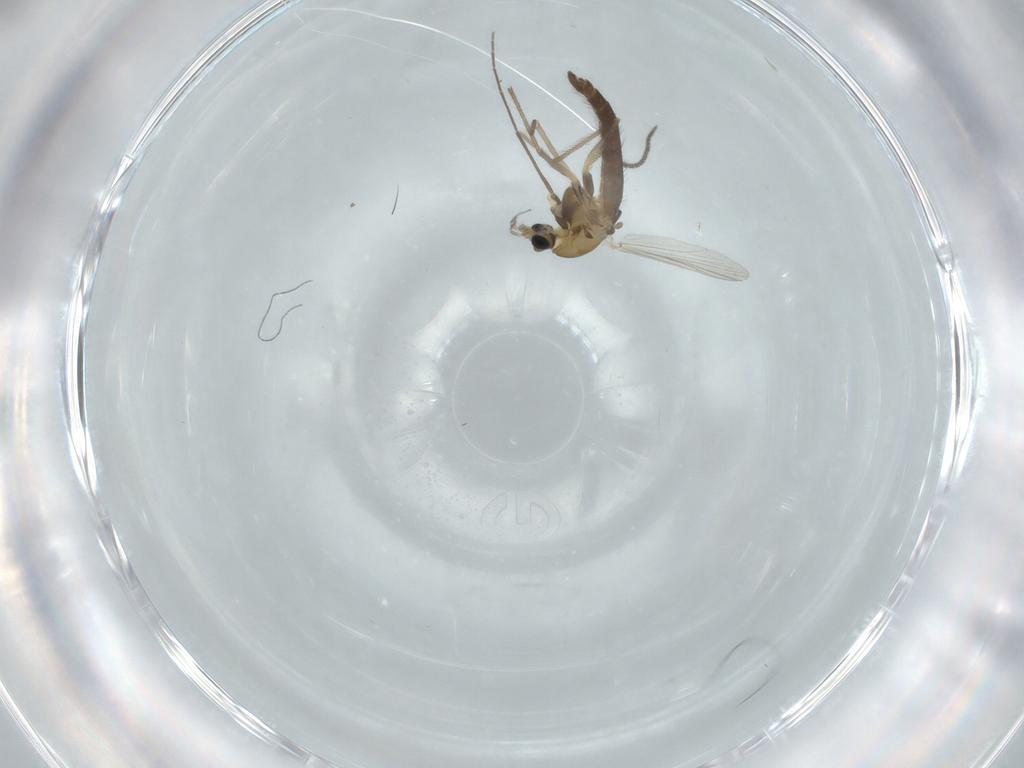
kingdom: Animalia
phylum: Arthropoda
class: Insecta
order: Diptera
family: Chironomidae
